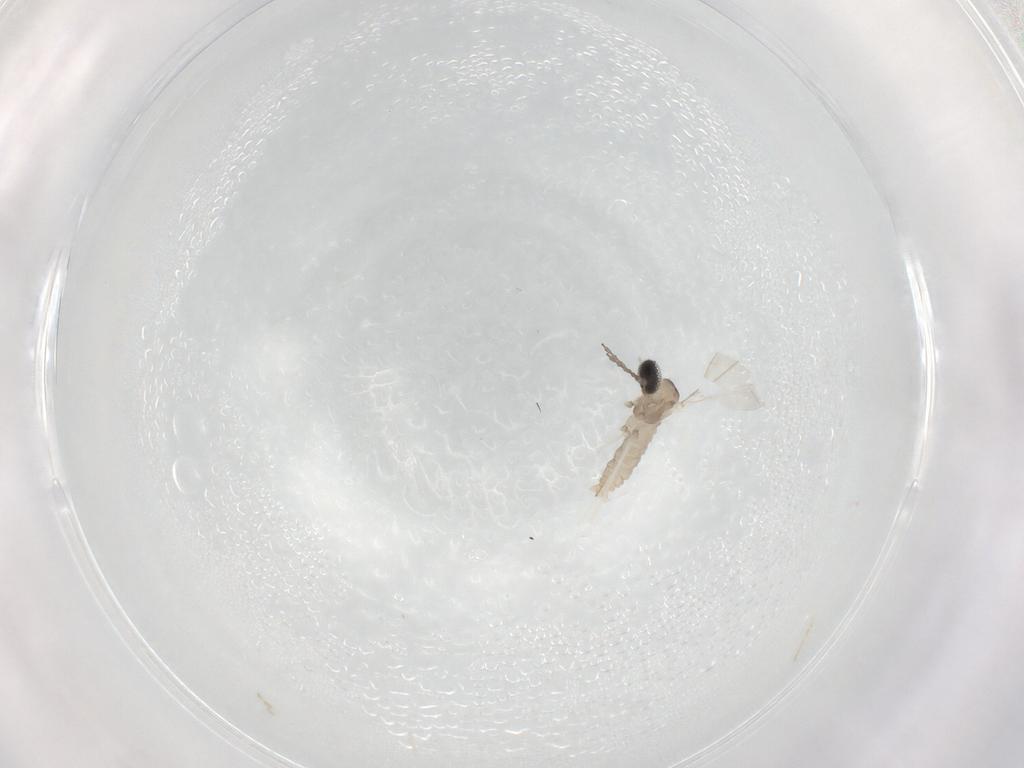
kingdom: Animalia
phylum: Arthropoda
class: Insecta
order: Diptera
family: Cecidomyiidae
